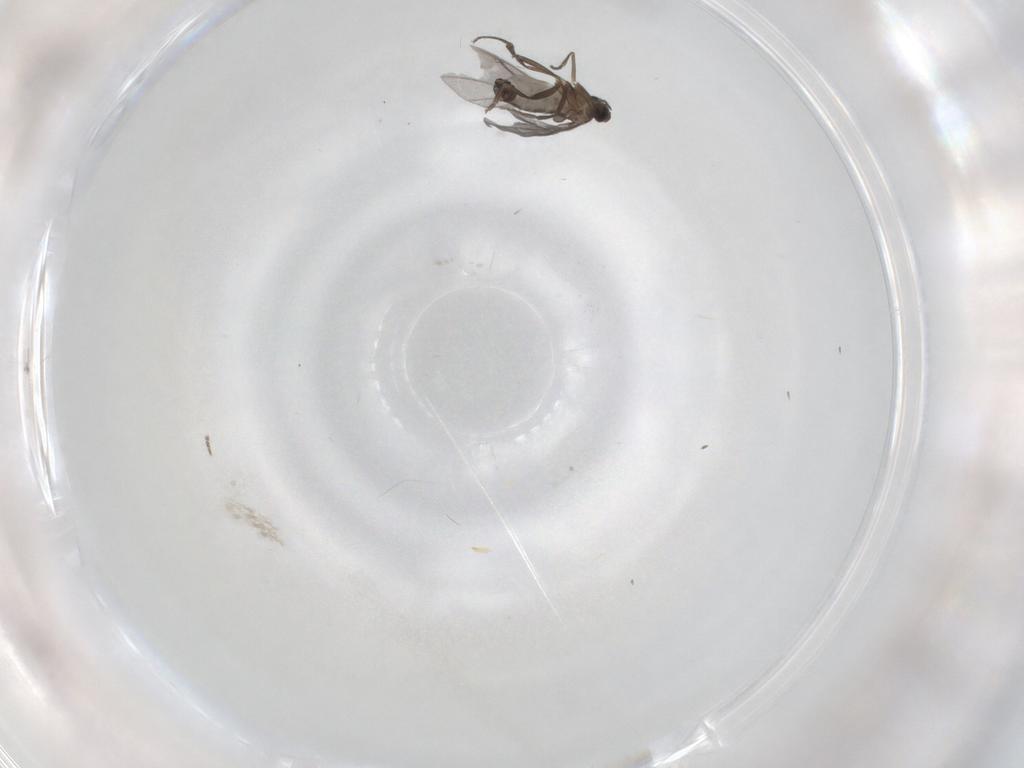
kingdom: Animalia
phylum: Arthropoda
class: Insecta
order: Diptera
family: Phoridae
